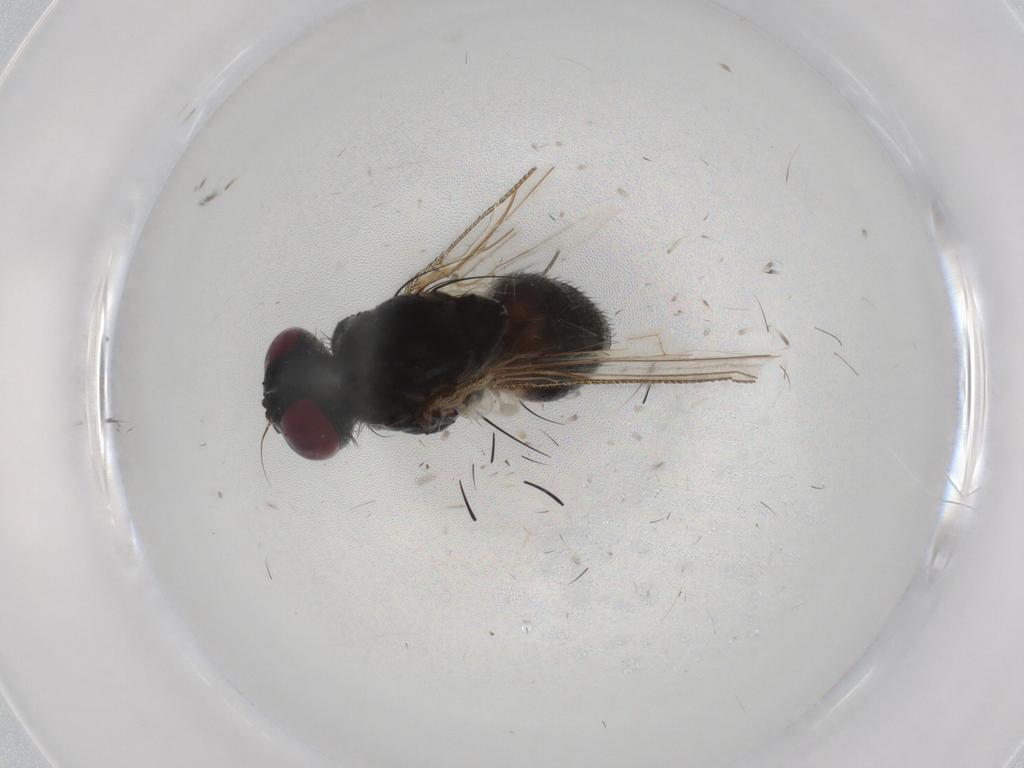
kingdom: Animalia
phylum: Arthropoda
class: Insecta
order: Diptera
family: Muscidae
